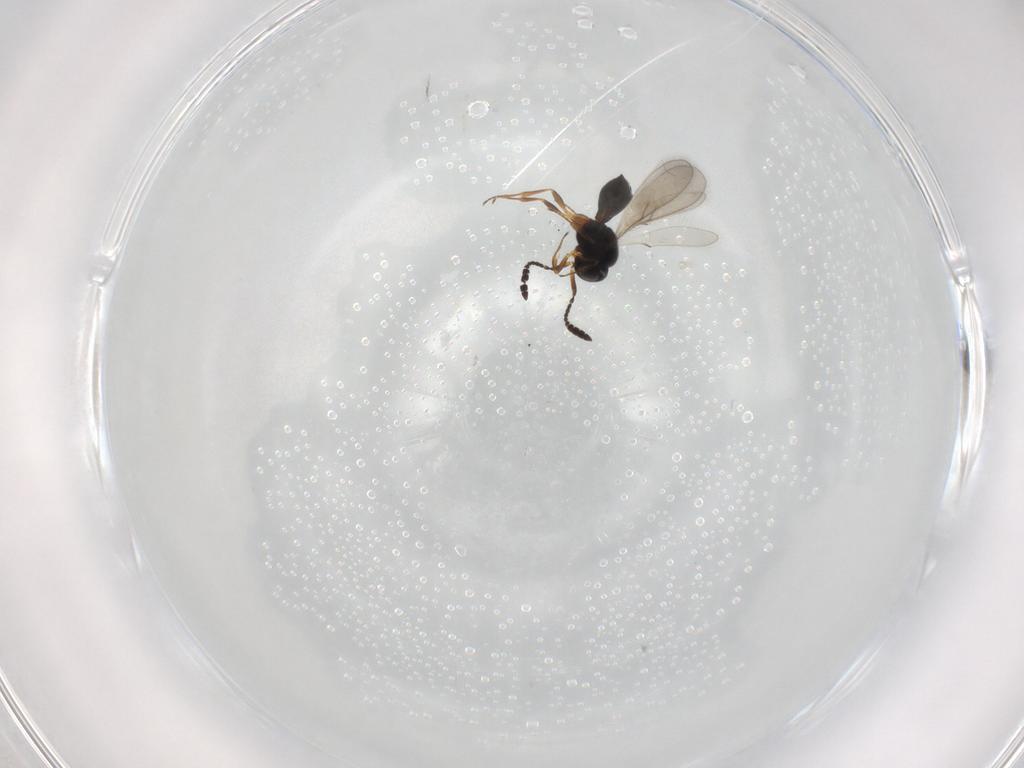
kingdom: Animalia
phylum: Arthropoda
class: Insecta
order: Hymenoptera
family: Scelionidae
